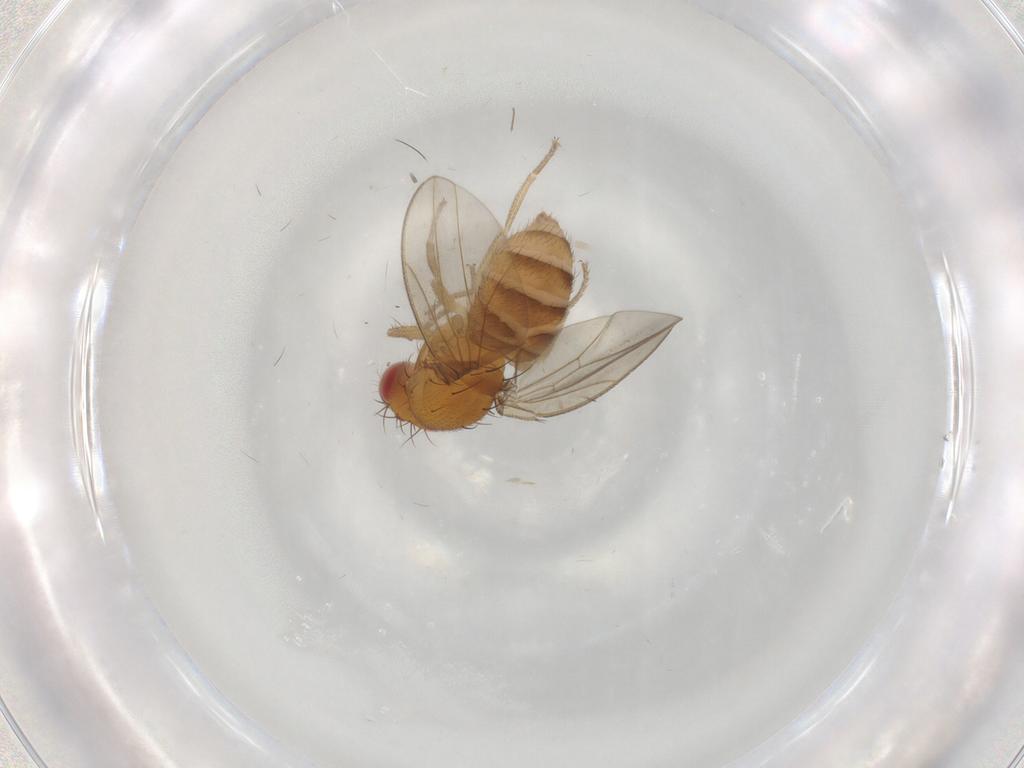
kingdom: Animalia
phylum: Arthropoda
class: Insecta
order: Diptera
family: Drosophilidae
